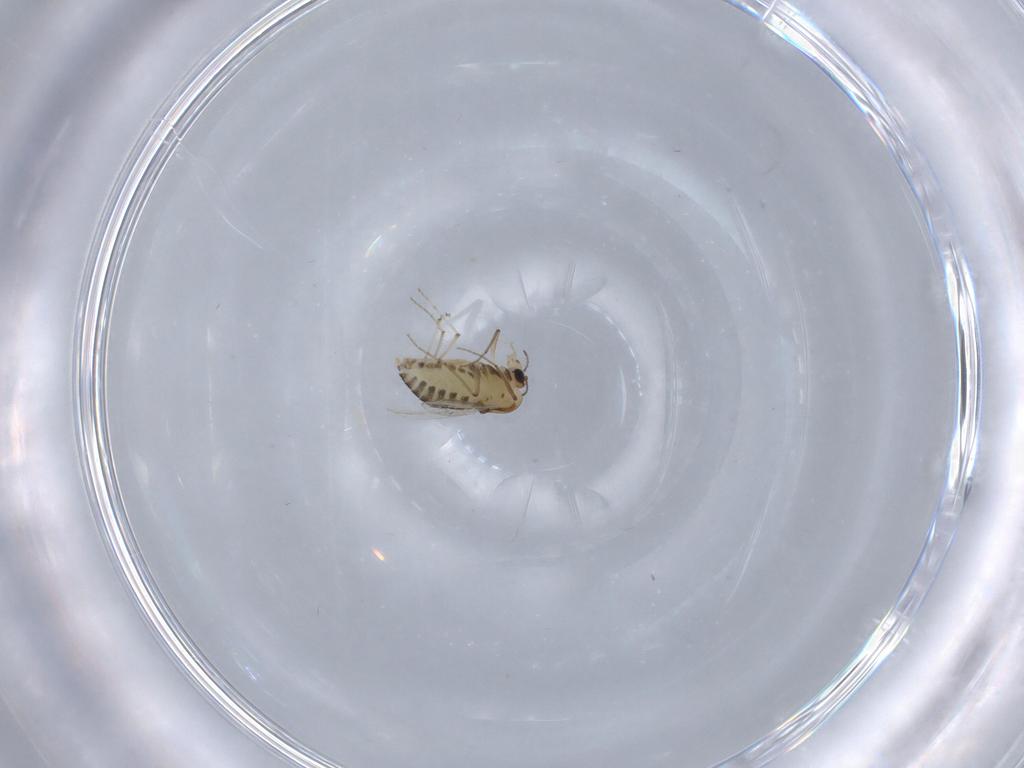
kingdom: Animalia
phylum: Arthropoda
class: Insecta
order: Diptera
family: Chironomidae
